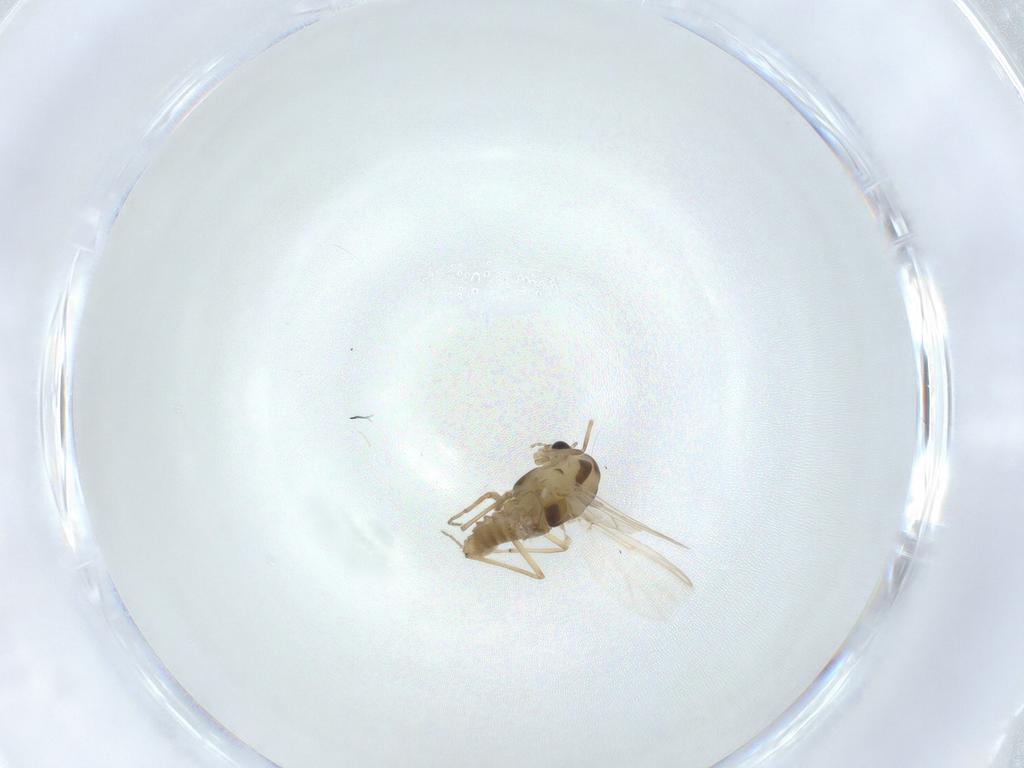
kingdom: Animalia
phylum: Arthropoda
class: Insecta
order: Diptera
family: Chironomidae
